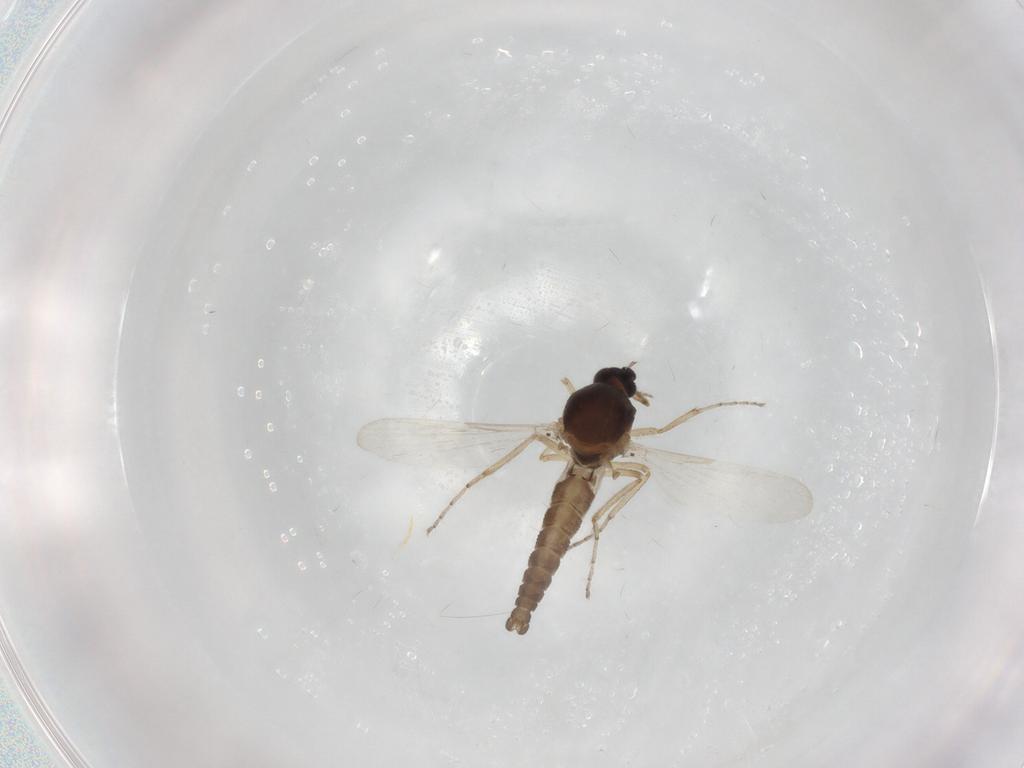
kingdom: Animalia
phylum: Arthropoda
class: Insecta
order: Diptera
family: Ceratopogonidae
